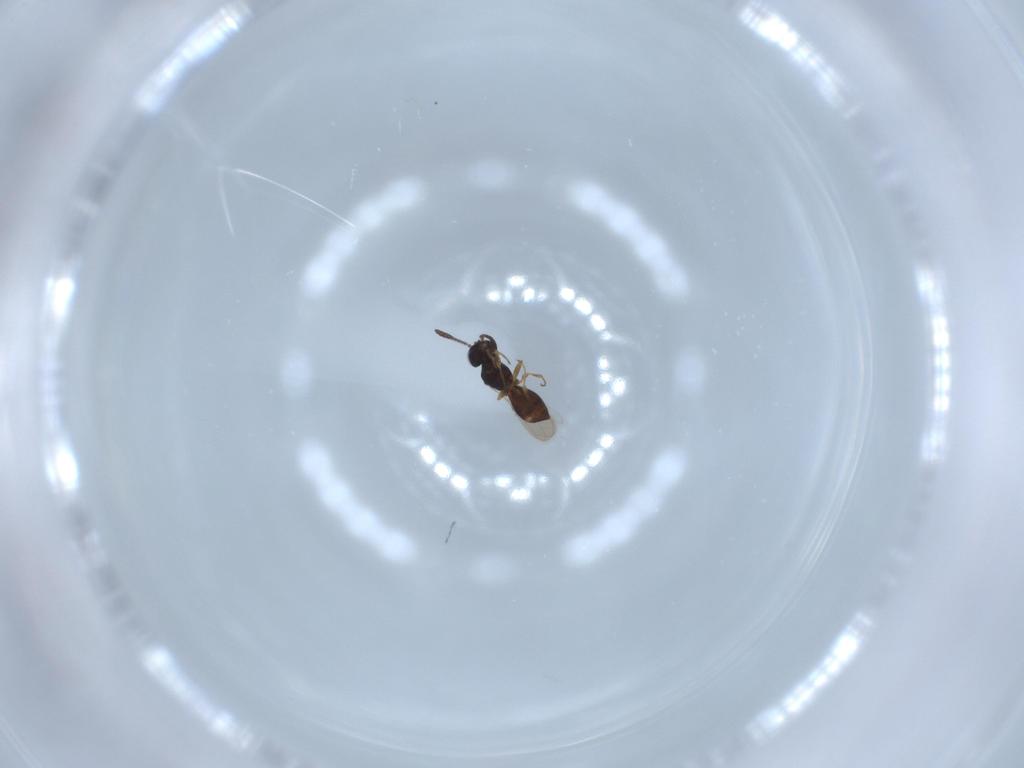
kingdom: Animalia
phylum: Arthropoda
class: Insecta
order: Hymenoptera
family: Scelionidae
